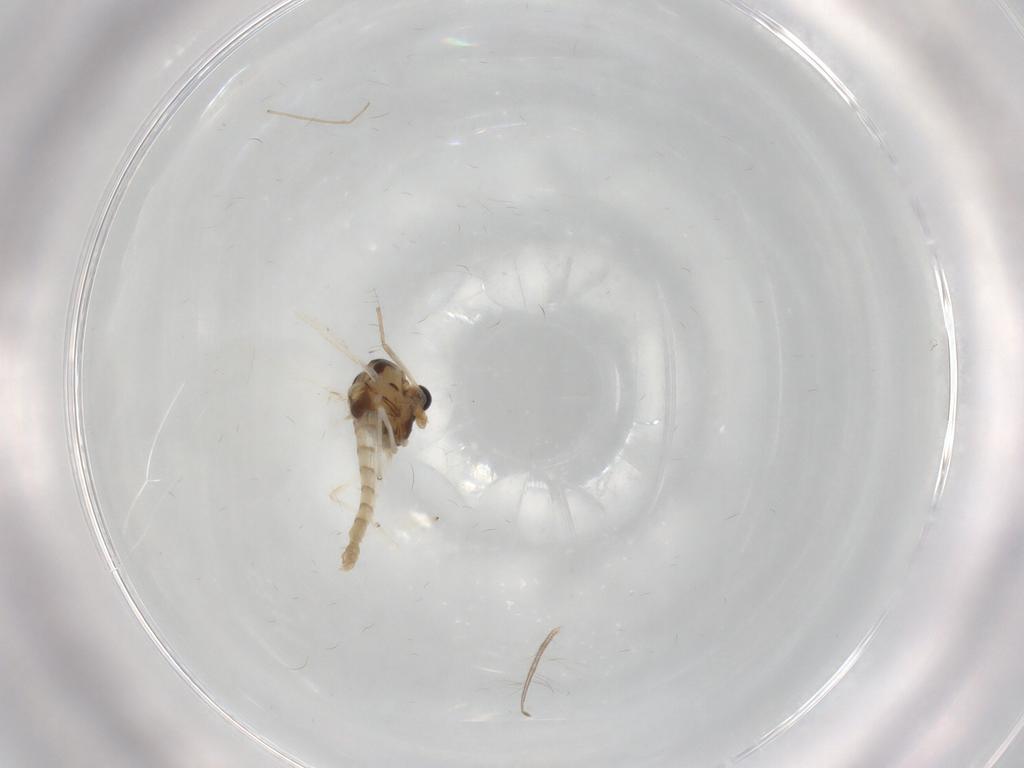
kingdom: Animalia
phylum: Arthropoda
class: Insecta
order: Diptera
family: Chironomidae
